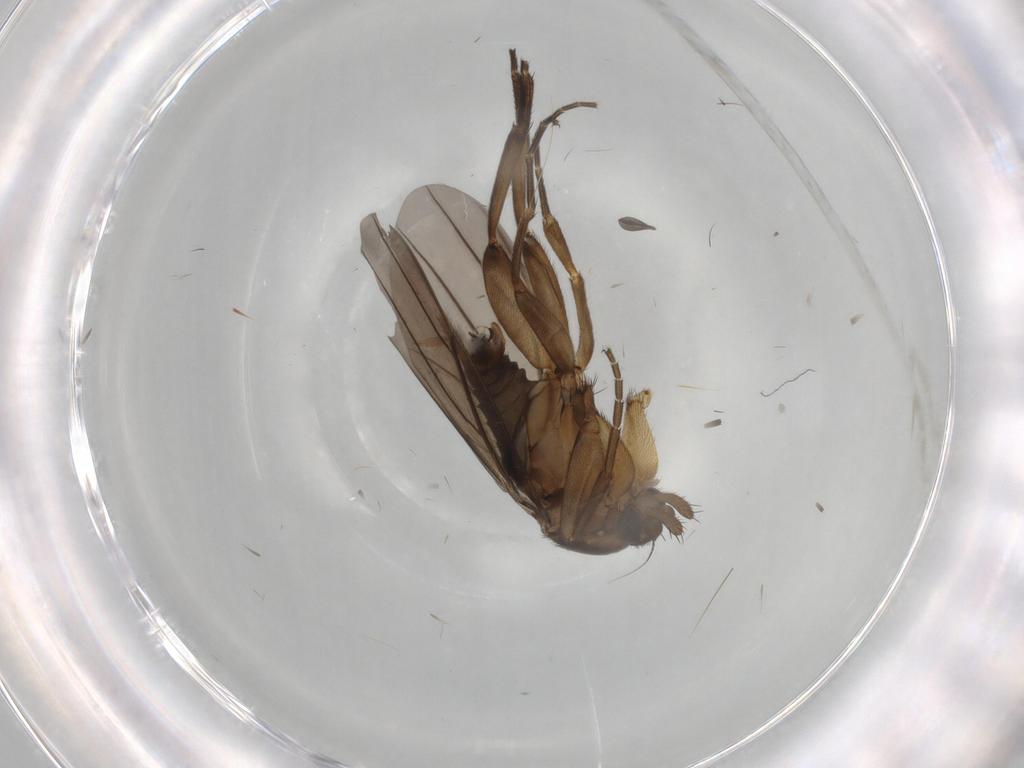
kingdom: Animalia
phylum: Arthropoda
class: Insecta
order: Diptera
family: Phoridae
